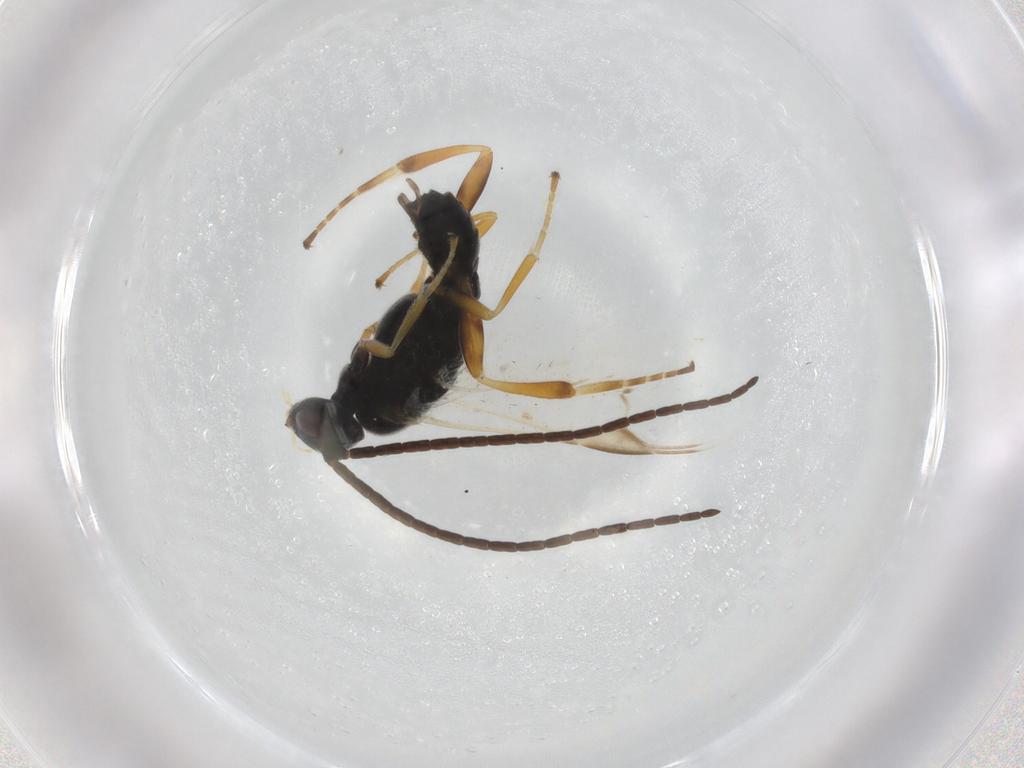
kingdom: Animalia
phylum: Arthropoda
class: Insecta
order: Hymenoptera
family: Braconidae
